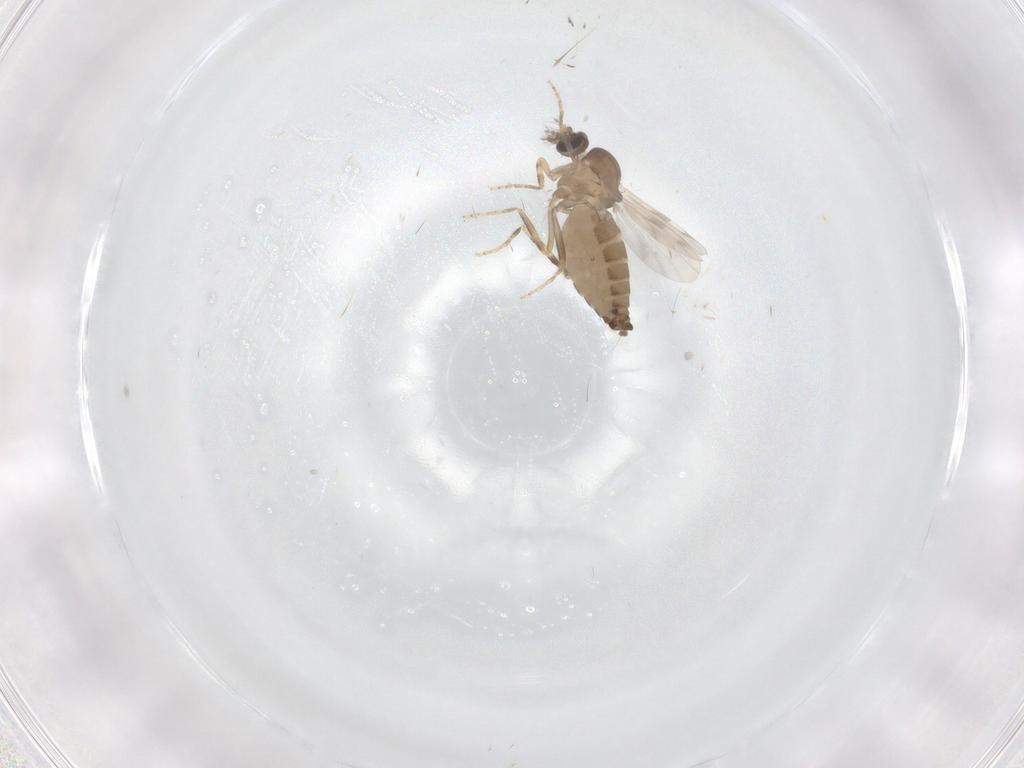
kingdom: Animalia
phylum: Arthropoda
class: Insecta
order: Diptera
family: Ceratopogonidae
